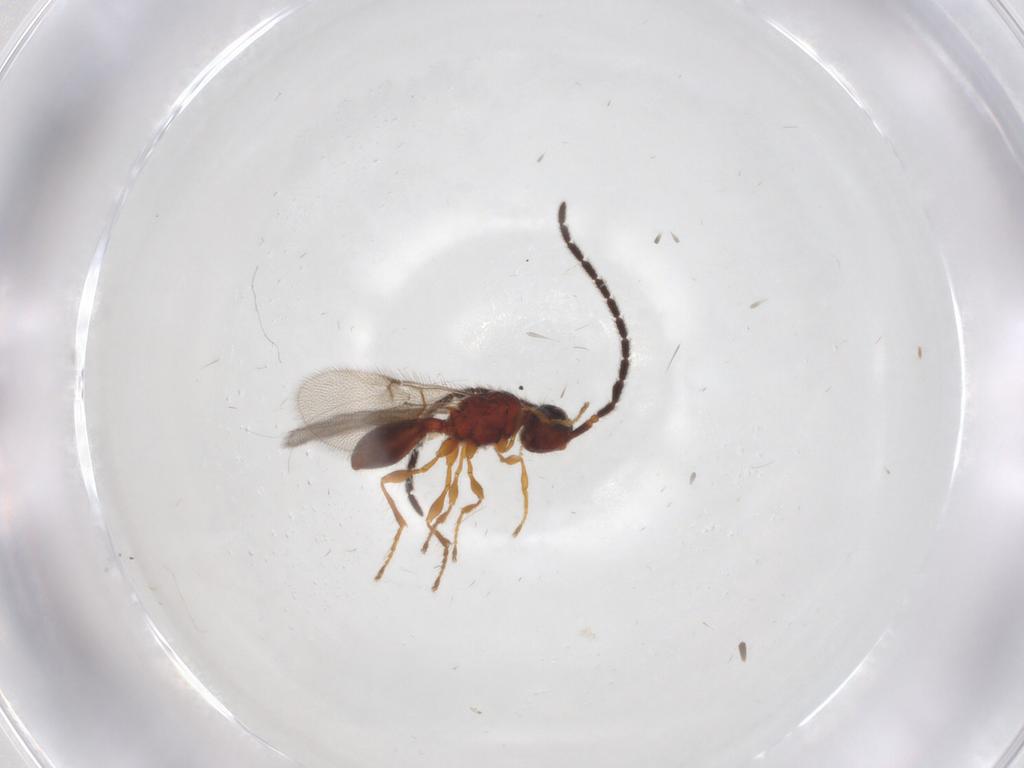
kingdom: Animalia
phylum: Arthropoda
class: Insecta
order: Hymenoptera
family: Diapriidae
